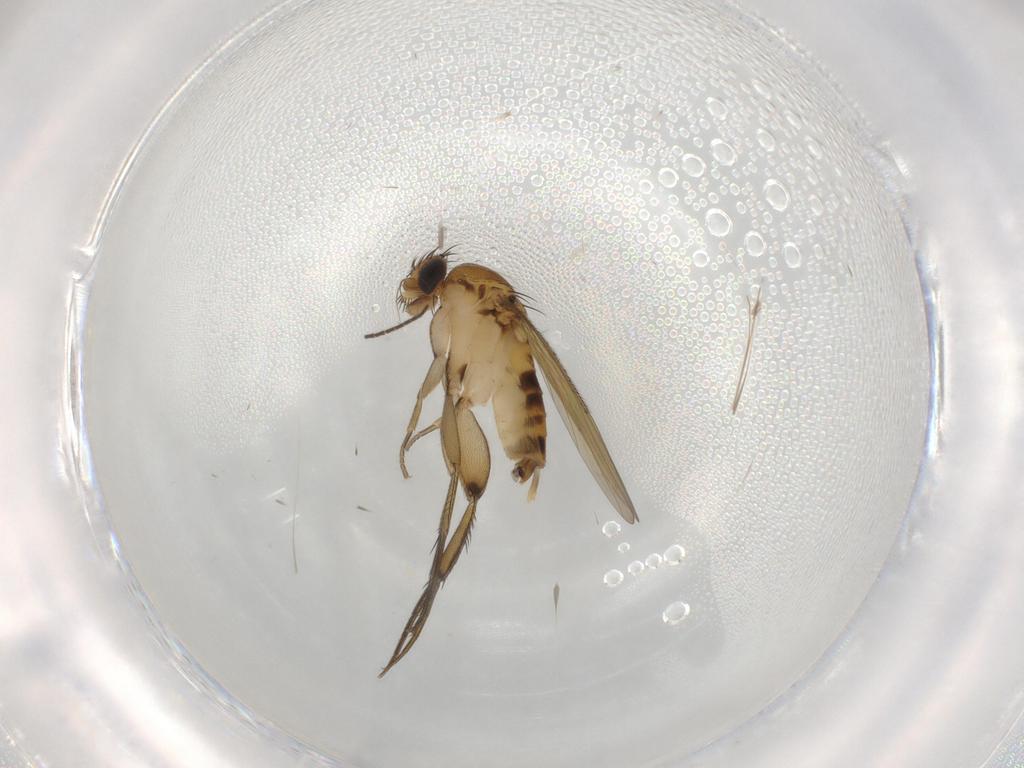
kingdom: Animalia
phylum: Arthropoda
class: Insecta
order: Diptera
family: Phoridae
